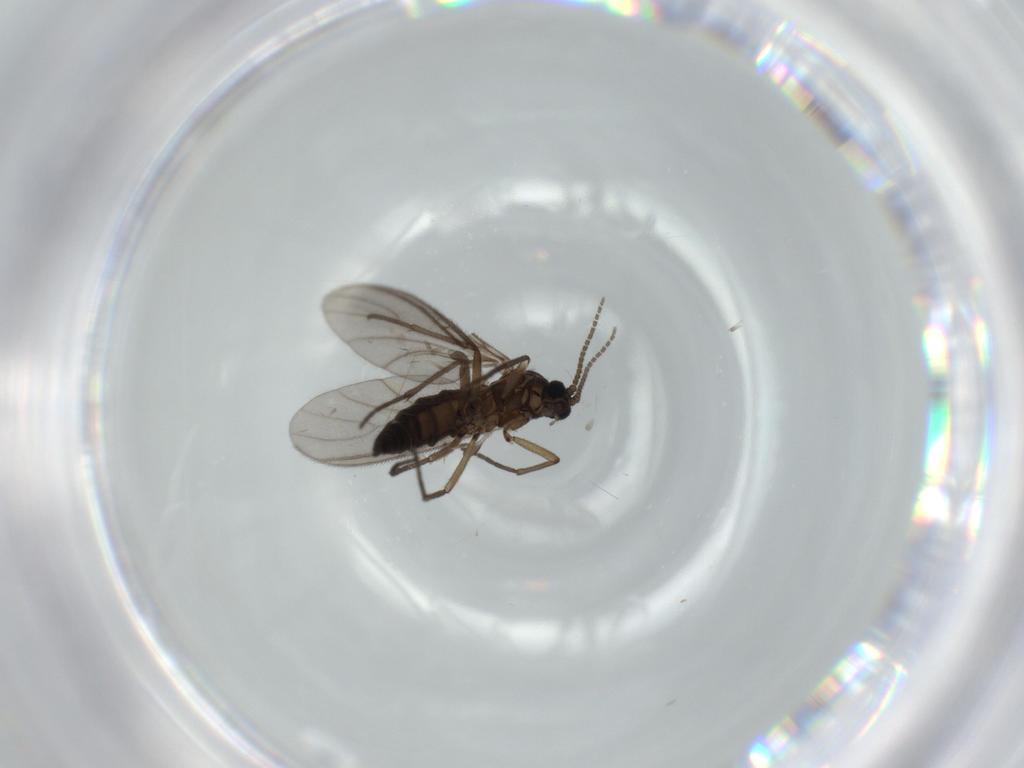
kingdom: Animalia
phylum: Arthropoda
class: Insecta
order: Diptera
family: Sciaridae
